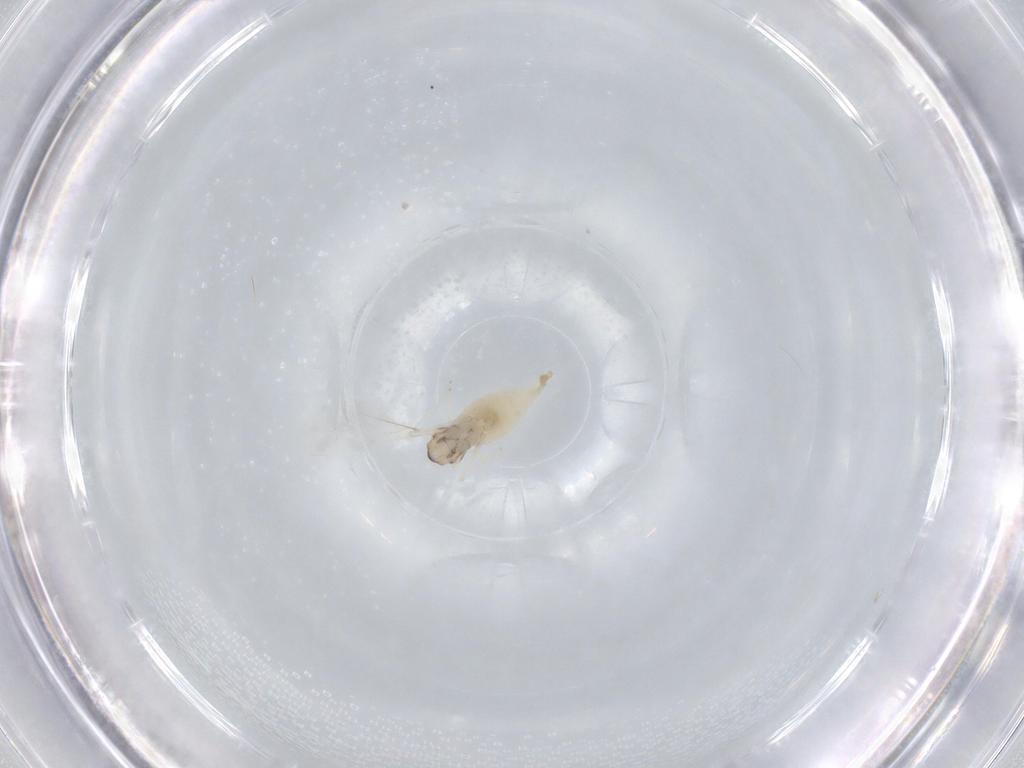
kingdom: Animalia
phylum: Arthropoda
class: Insecta
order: Diptera
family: Cecidomyiidae
